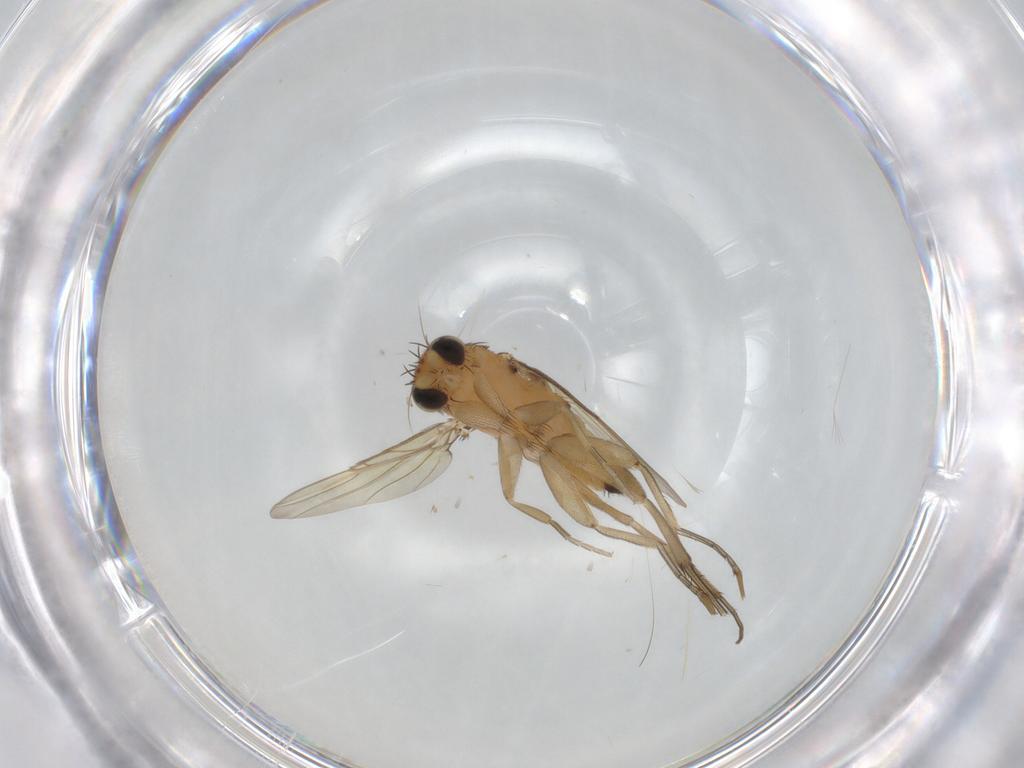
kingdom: Animalia
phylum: Arthropoda
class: Insecta
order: Diptera
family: Phoridae
